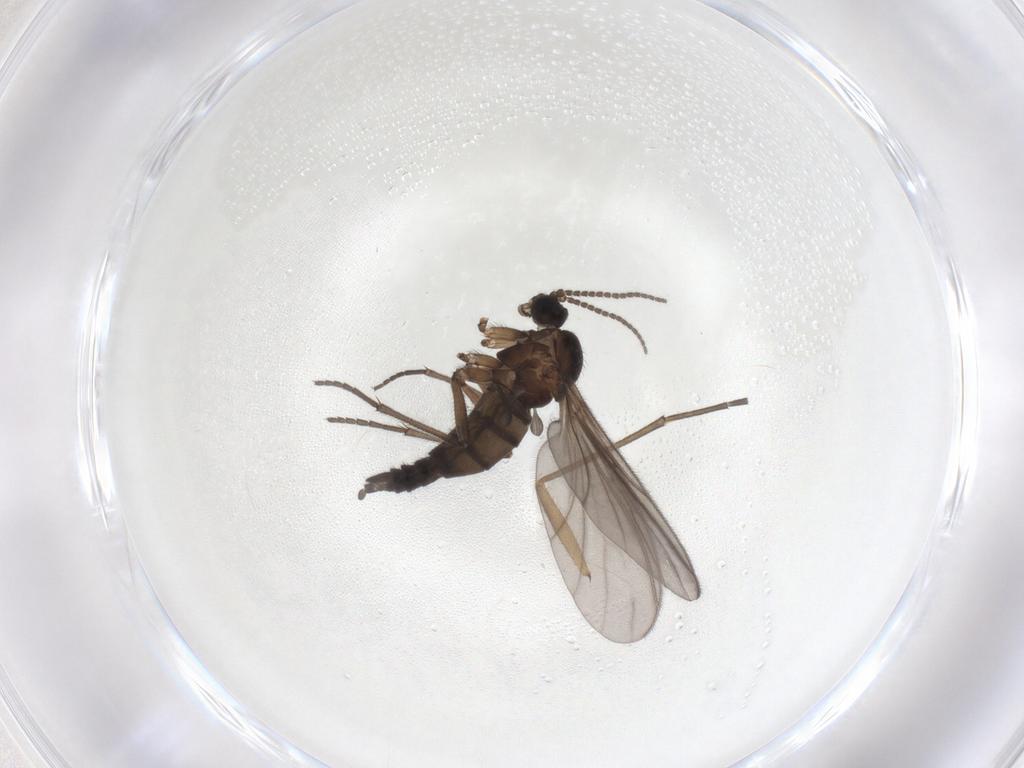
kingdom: Animalia
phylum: Arthropoda
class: Insecta
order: Diptera
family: Sciaridae
